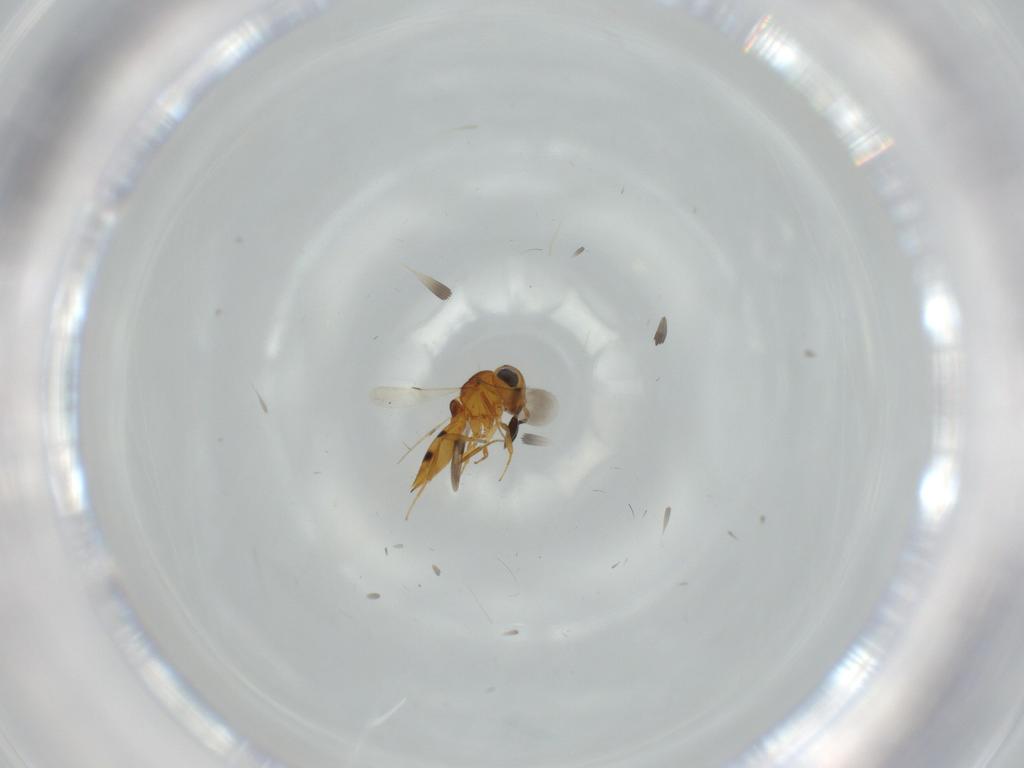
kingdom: Animalia
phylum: Arthropoda
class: Insecta
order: Hymenoptera
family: Scelionidae
